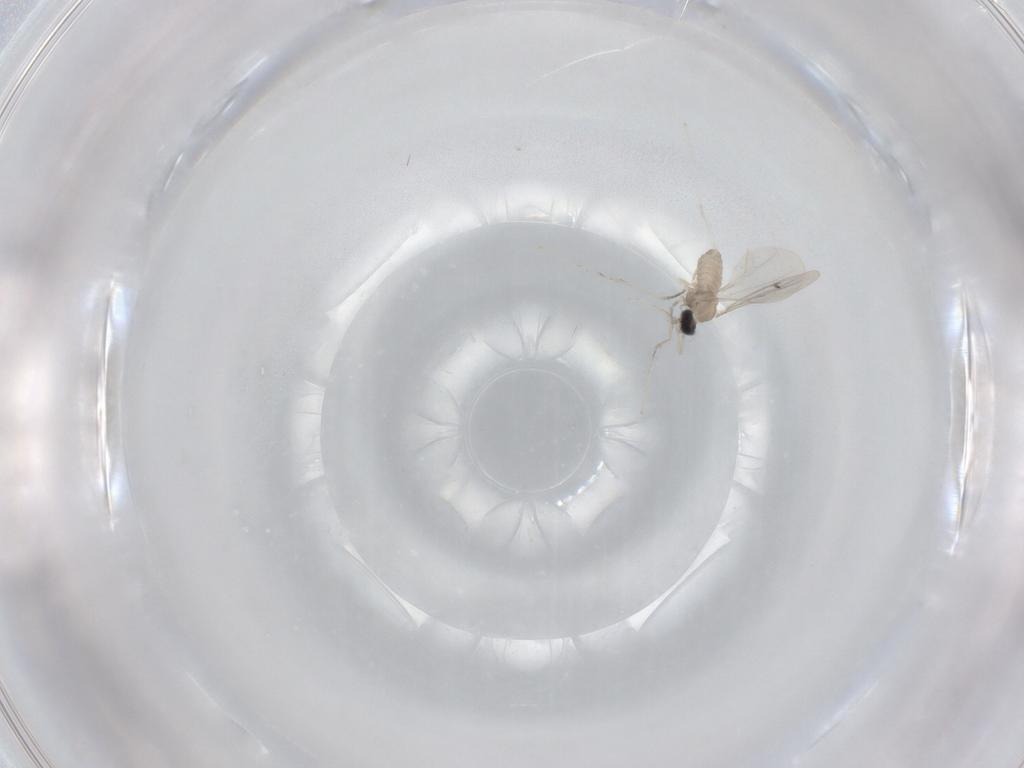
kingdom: Animalia
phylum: Arthropoda
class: Insecta
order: Diptera
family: Cecidomyiidae
